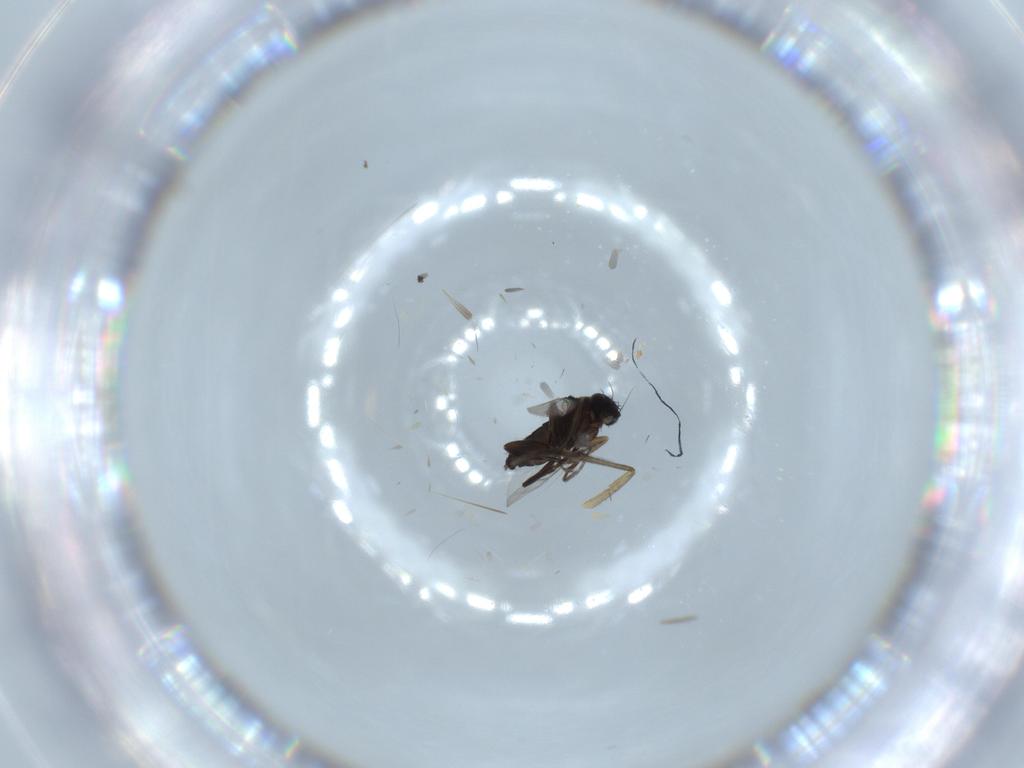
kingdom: Animalia
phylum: Arthropoda
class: Insecta
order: Diptera
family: Sciaridae
